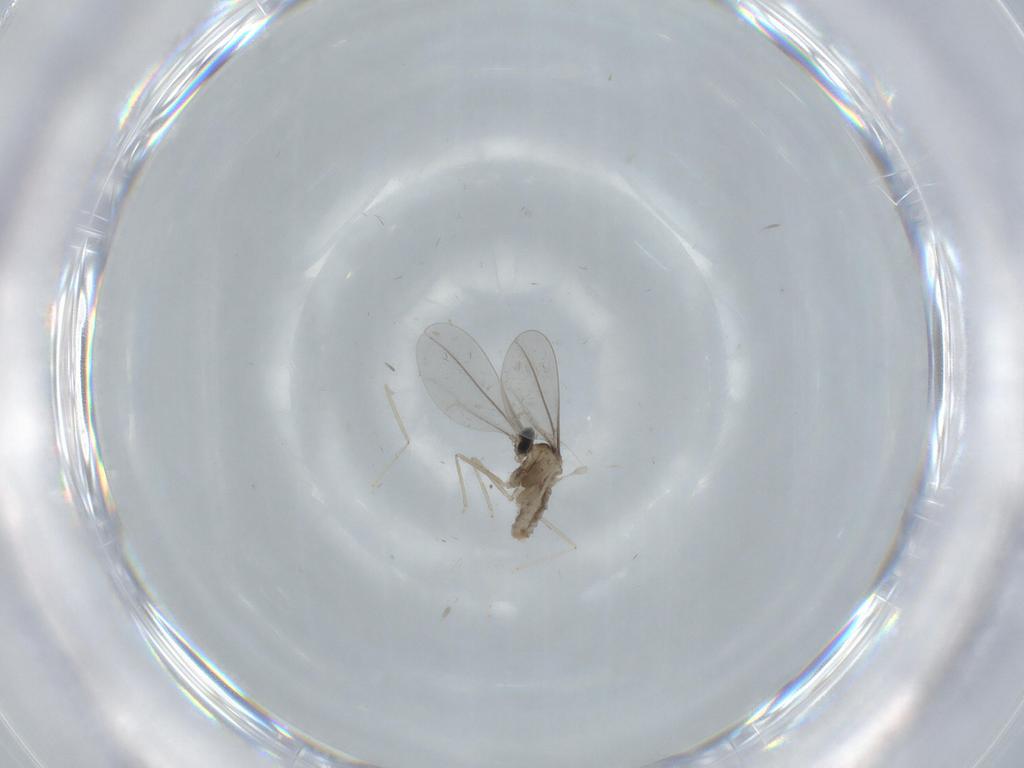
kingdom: Animalia
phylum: Arthropoda
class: Insecta
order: Diptera
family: Cecidomyiidae
